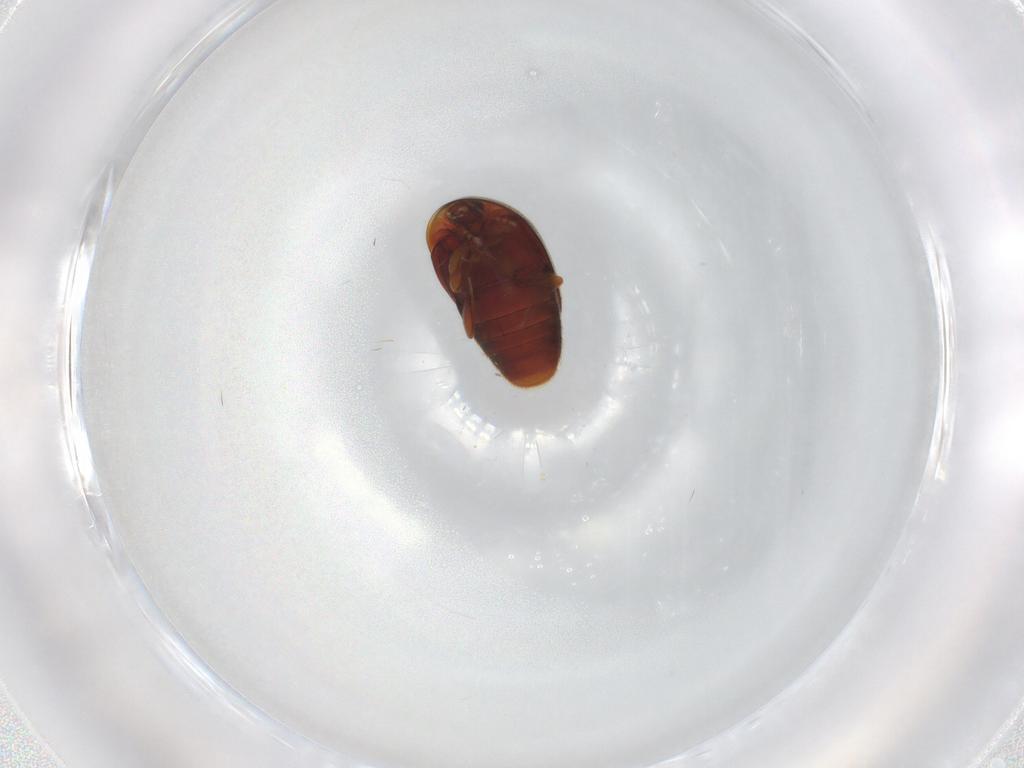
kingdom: Animalia
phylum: Arthropoda
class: Insecta
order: Coleoptera
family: Corylophidae
